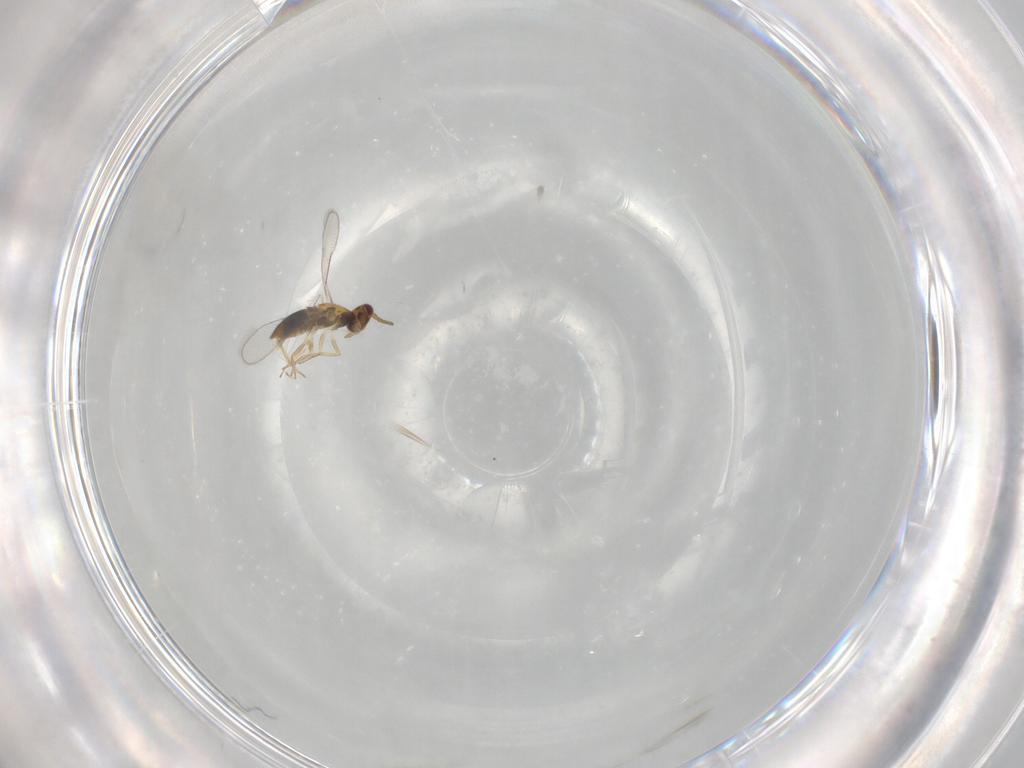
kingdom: Animalia
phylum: Arthropoda
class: Insecta
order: Hymenoptera
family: Aphelinidae
